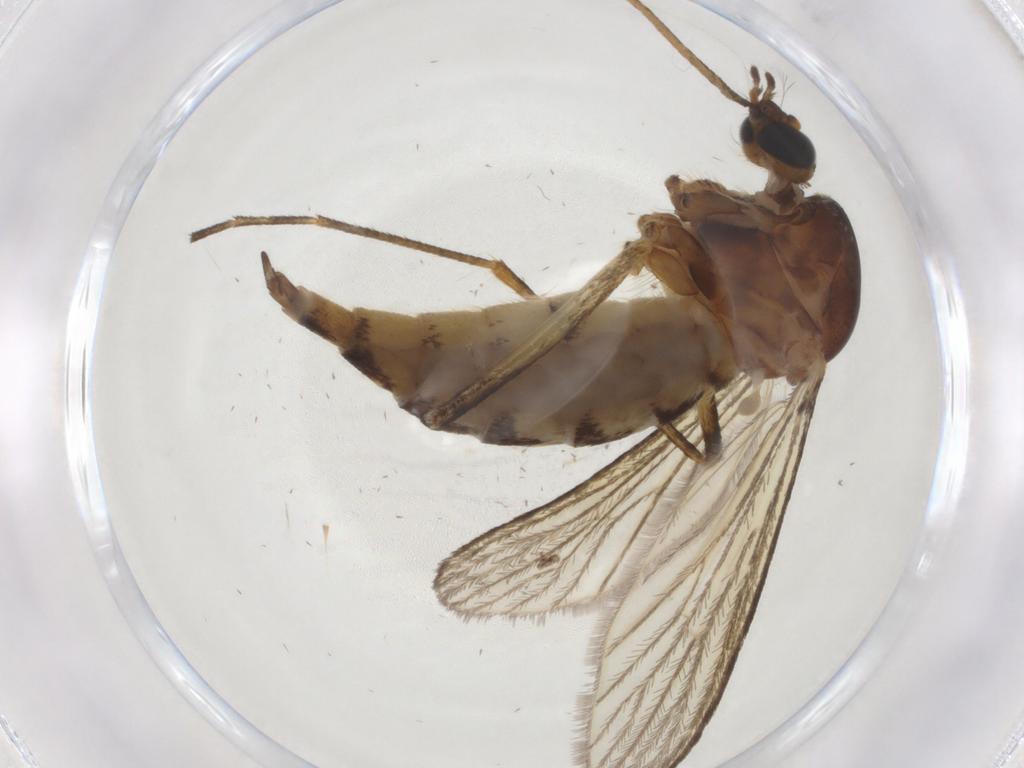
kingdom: Animalia
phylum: Arthropoda
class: Insecta
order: Diptera
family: Culicidae
